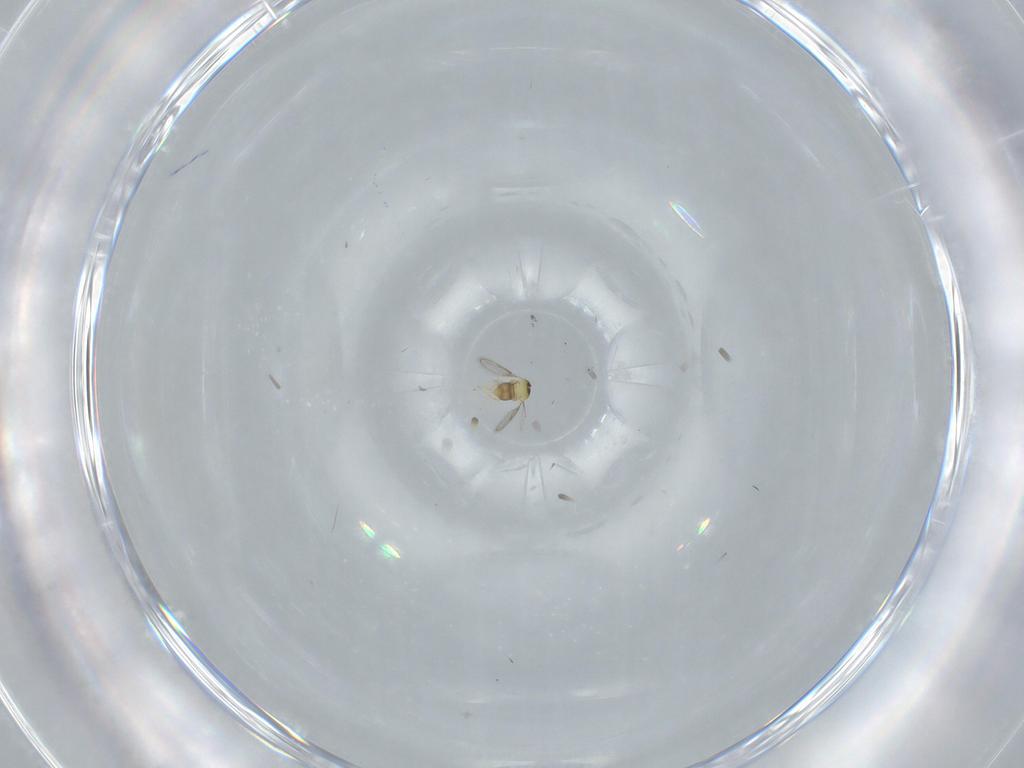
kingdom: Animalia
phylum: Arthropoda
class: Insecta
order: Hymenoptera
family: Aphelinidae
